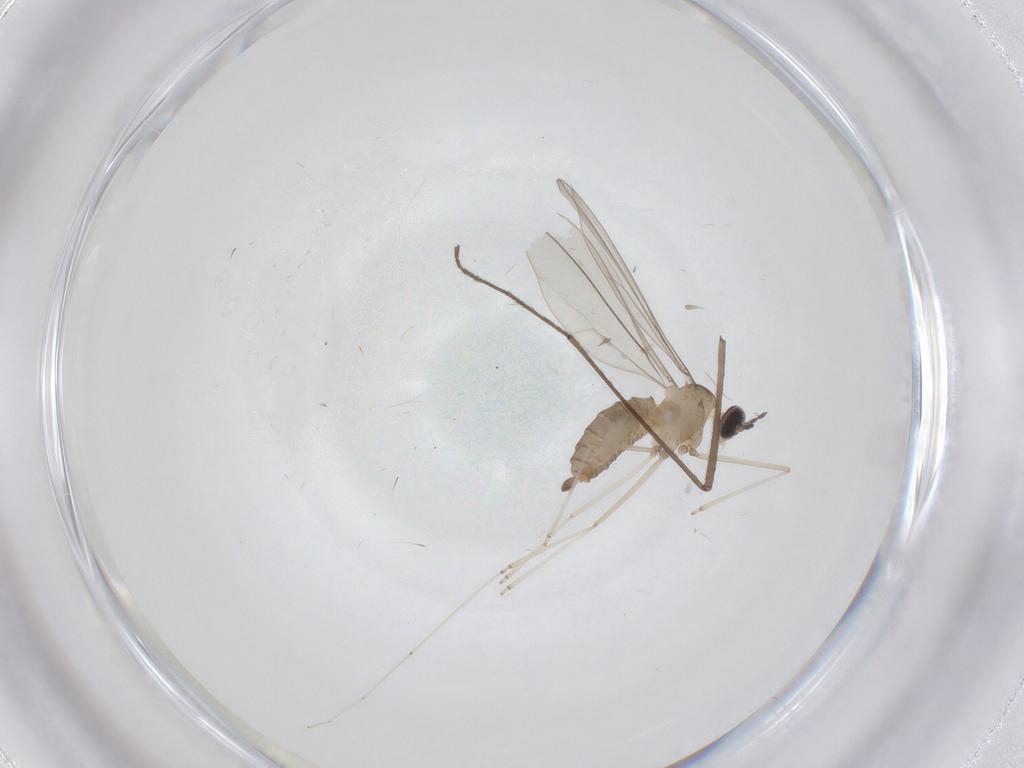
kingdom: Animalia
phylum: Arthropoda
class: Insecta
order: Diptera
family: Cecidomyiidae
